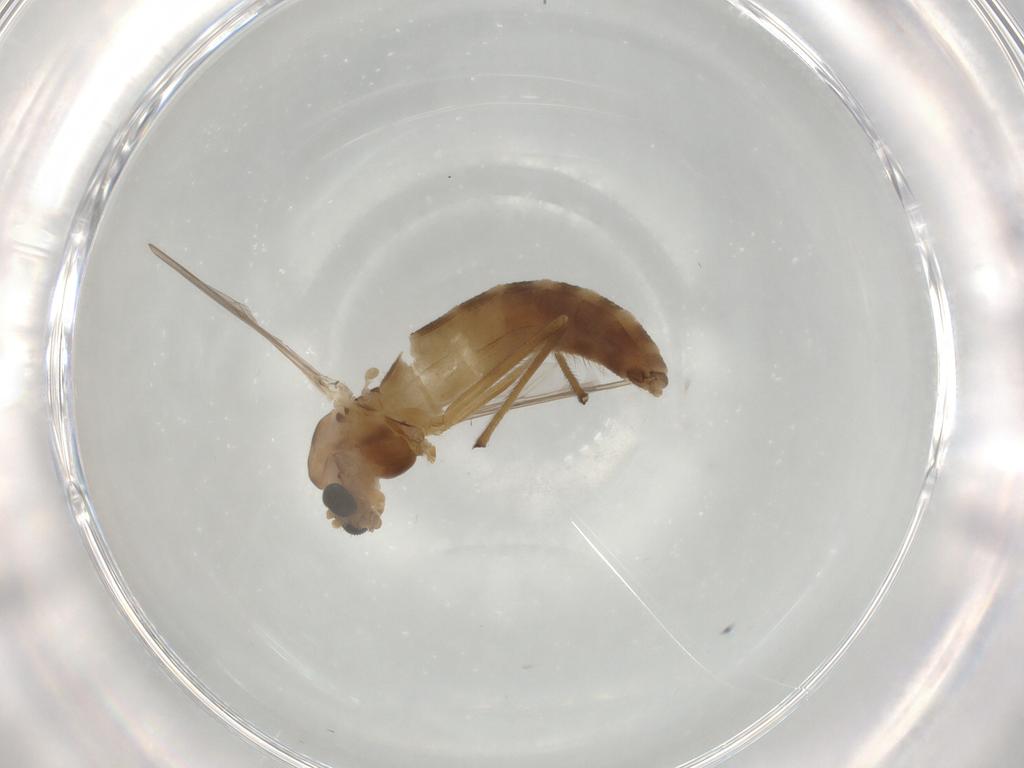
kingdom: Animalia
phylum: Arthropoda
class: Insecta
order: Diptera
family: Chironomidae
